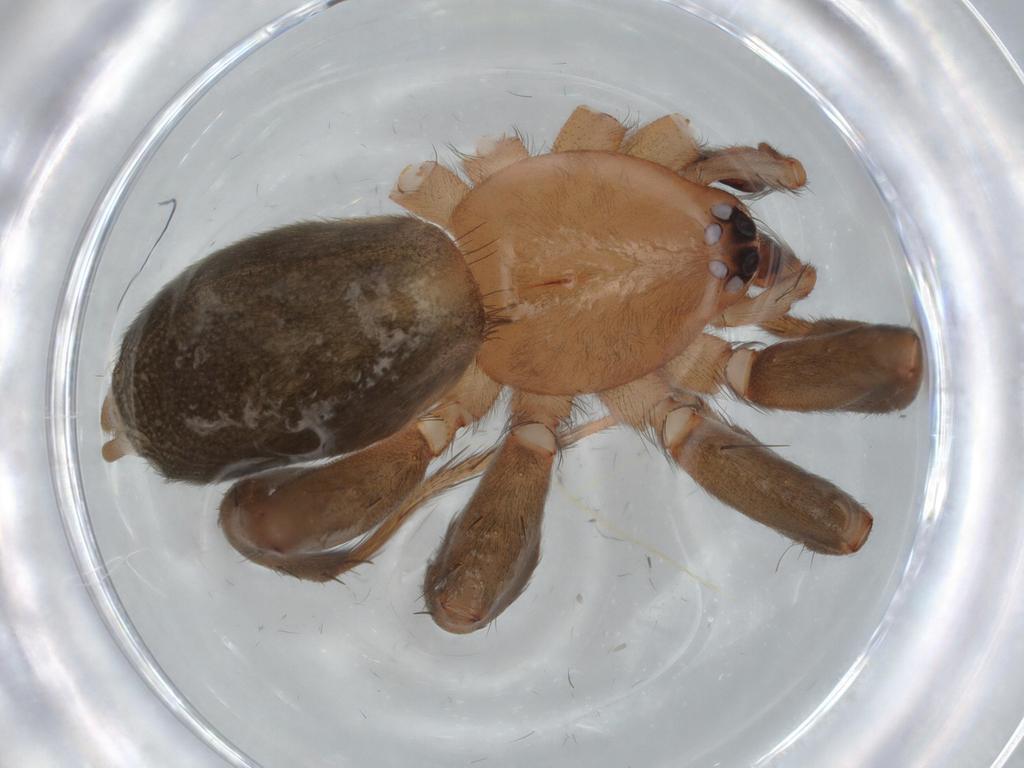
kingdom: Animalia
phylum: Arthropoda
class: Arachnida
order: Araneae
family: Gnaphosidae
